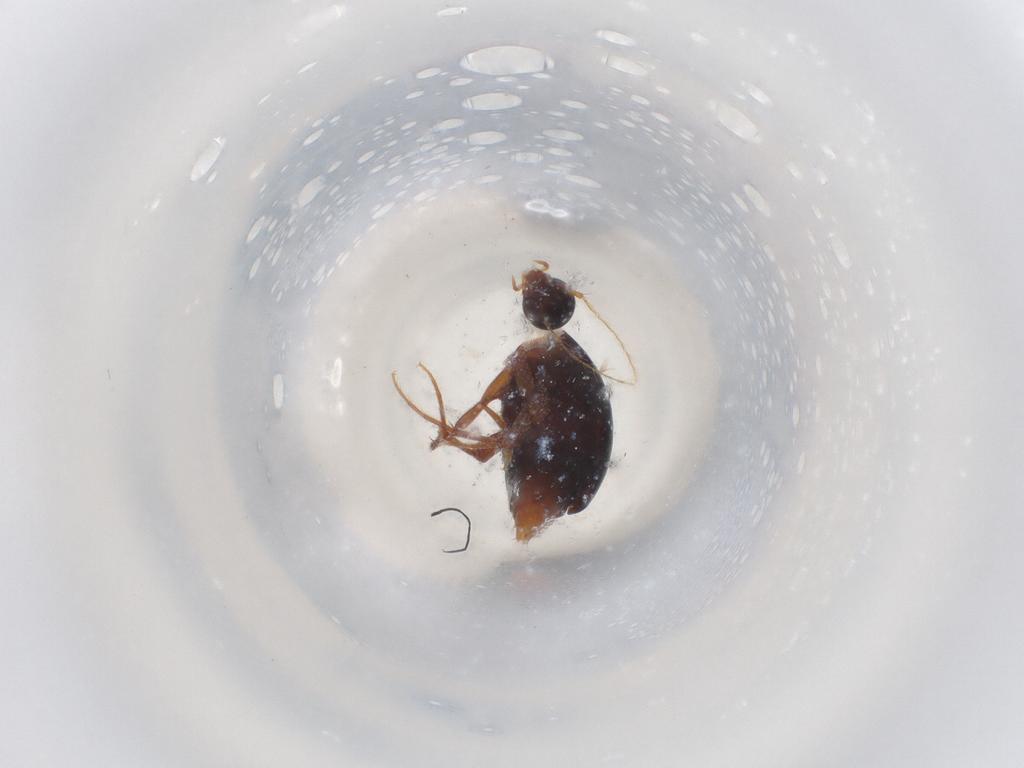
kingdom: Animalia
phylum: Arthropoda
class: Insecta
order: Coleoptera
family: Staphylinidae
